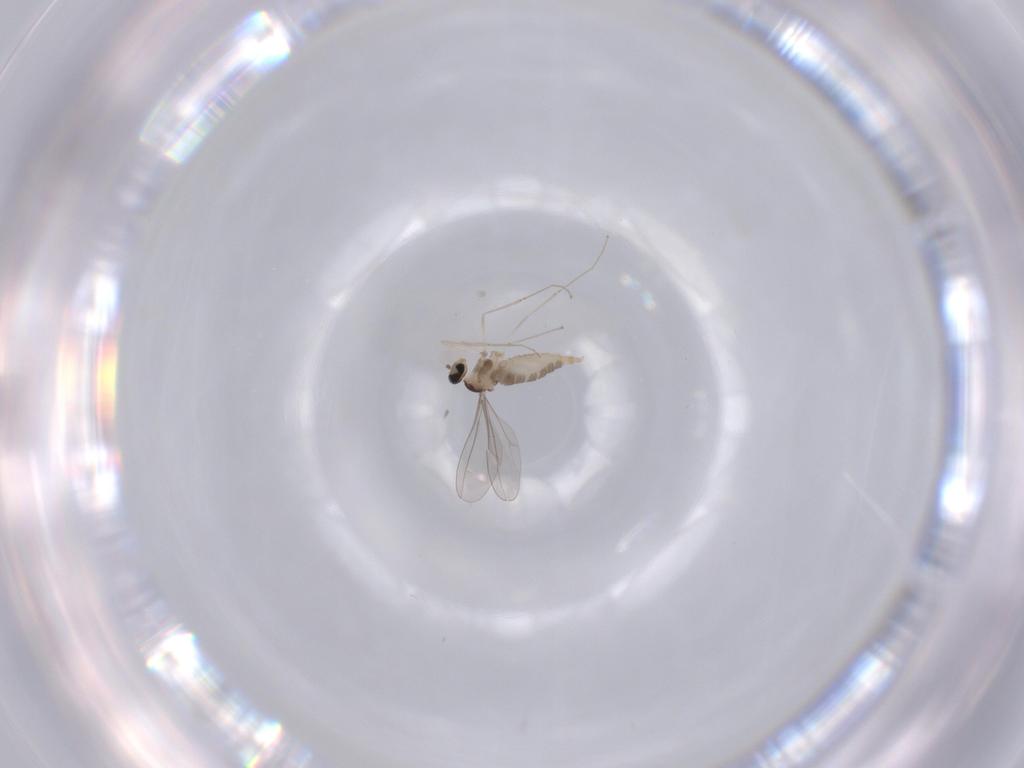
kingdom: Animalia
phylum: Arthropoda
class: Insecta
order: Diptera
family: Cecidomyiidae
